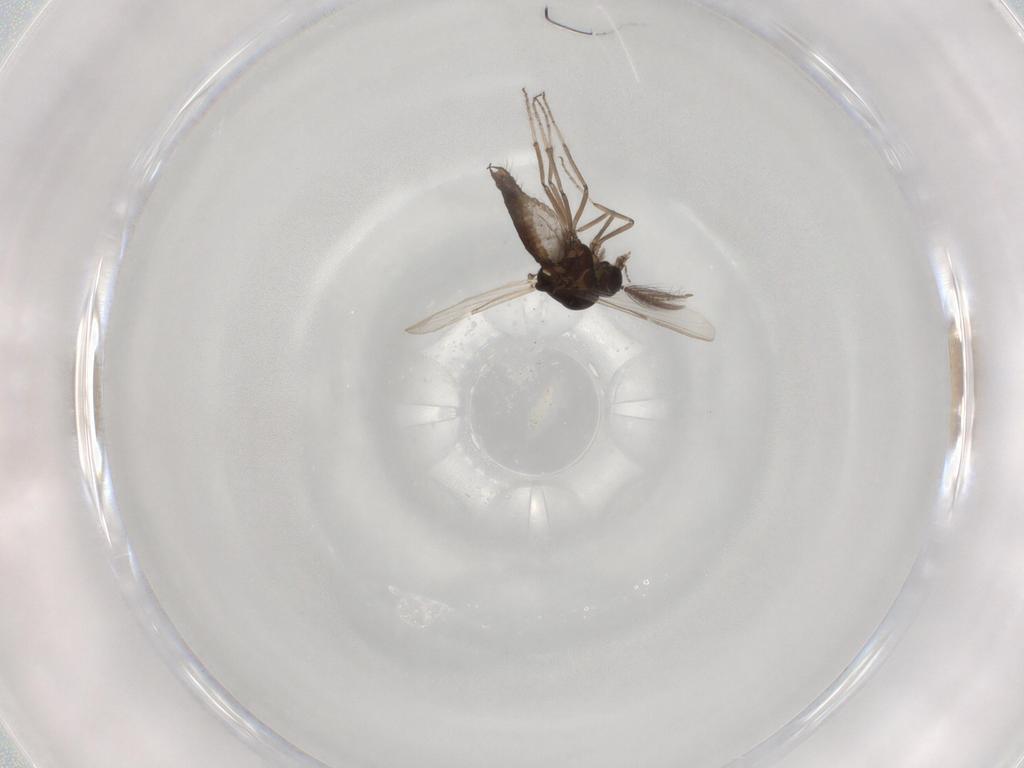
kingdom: Animalia
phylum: Arthropoda
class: Insecta
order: Diptera
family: Chironomidae
